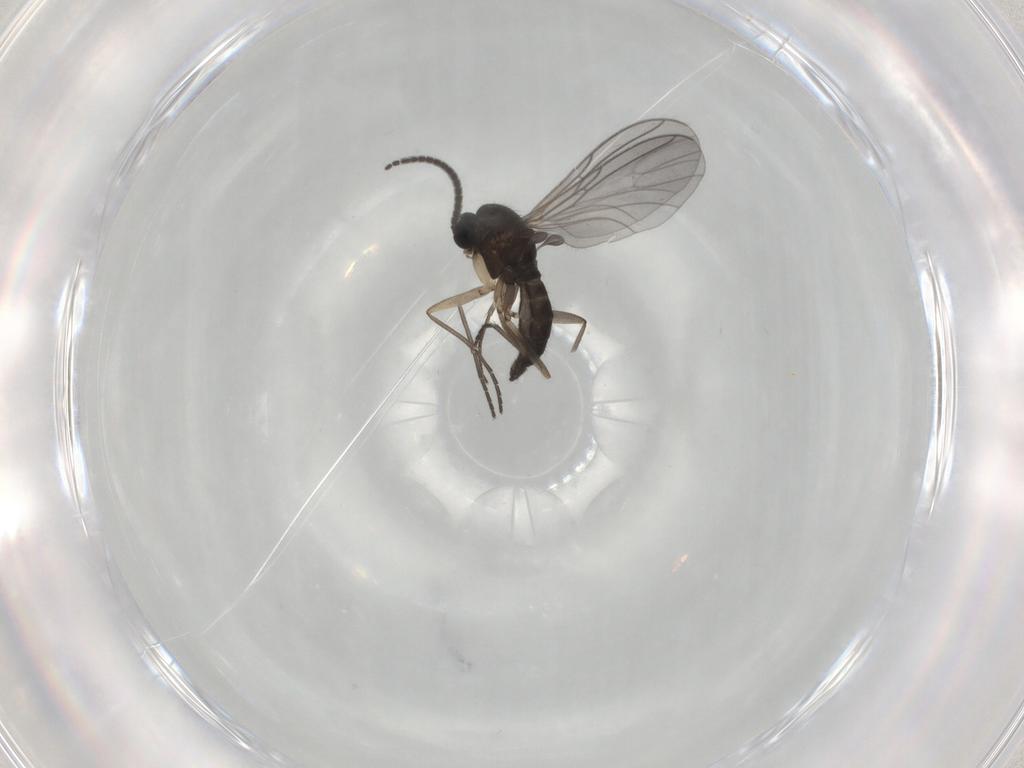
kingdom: Animalia
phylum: Arthropoda
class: Insecta
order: Diptera
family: Sciaridae
